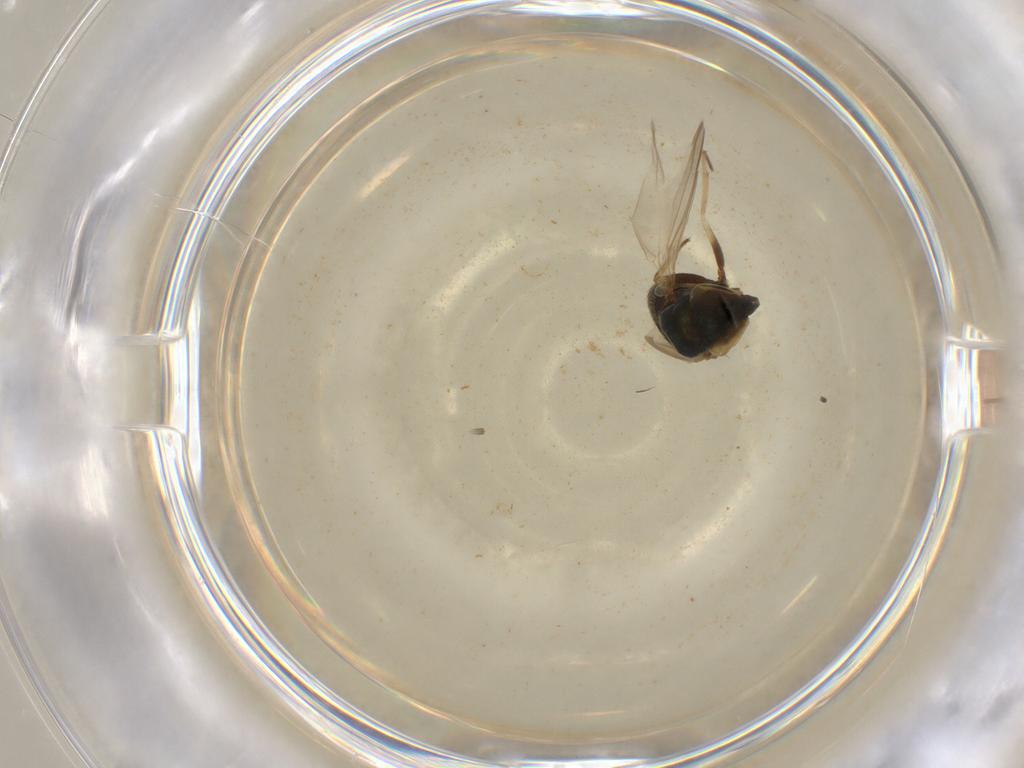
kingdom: Animalia
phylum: Arthropoda
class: Insecta
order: Diptera
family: Dolichopodidae
